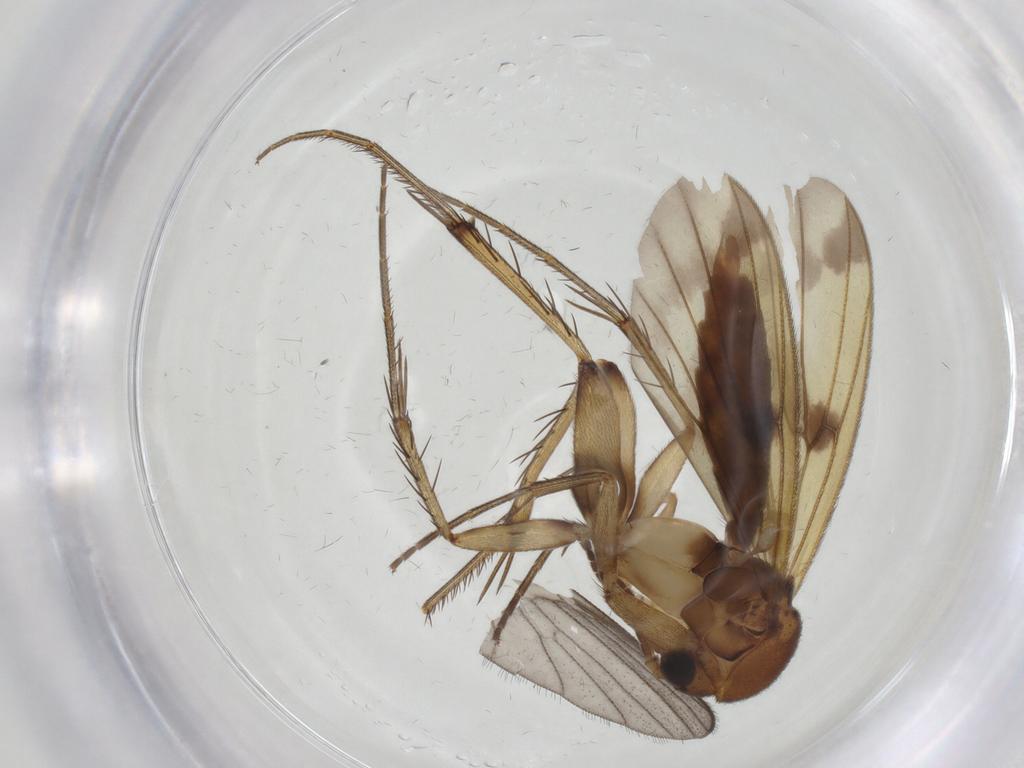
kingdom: Animalia
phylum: Arthropoda
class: Insecta
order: Diptera
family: Mycetophilidae
